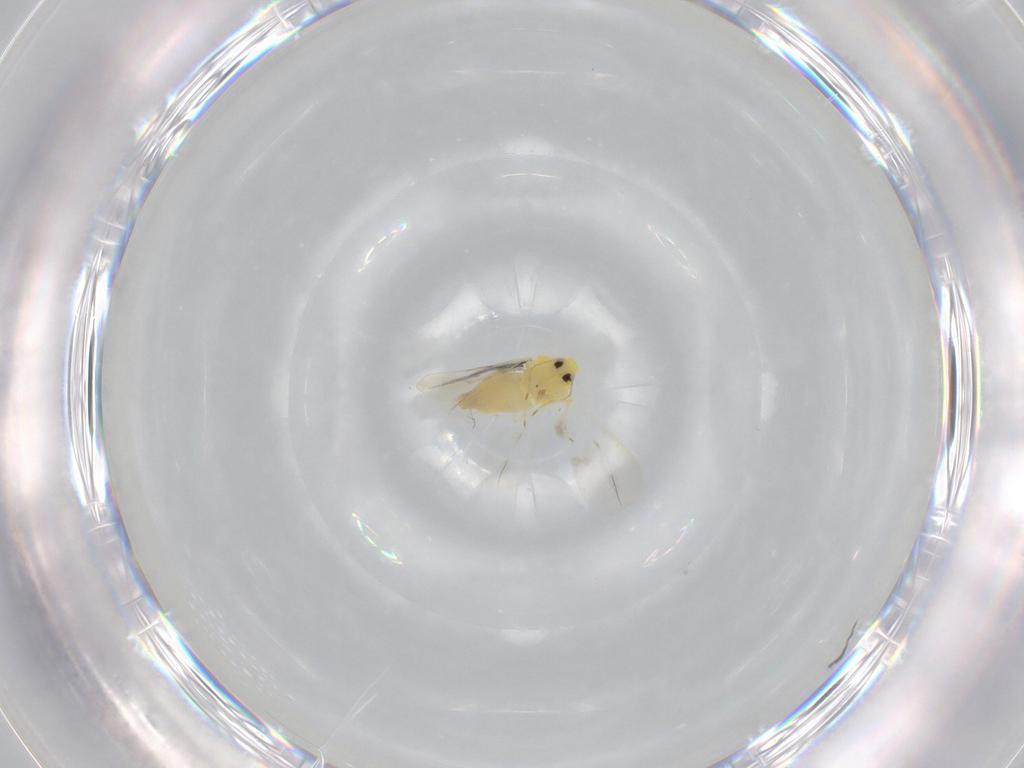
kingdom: Animalia
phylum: Arthropoda
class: Insecta
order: Hemiptera
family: Aleyrodidae
